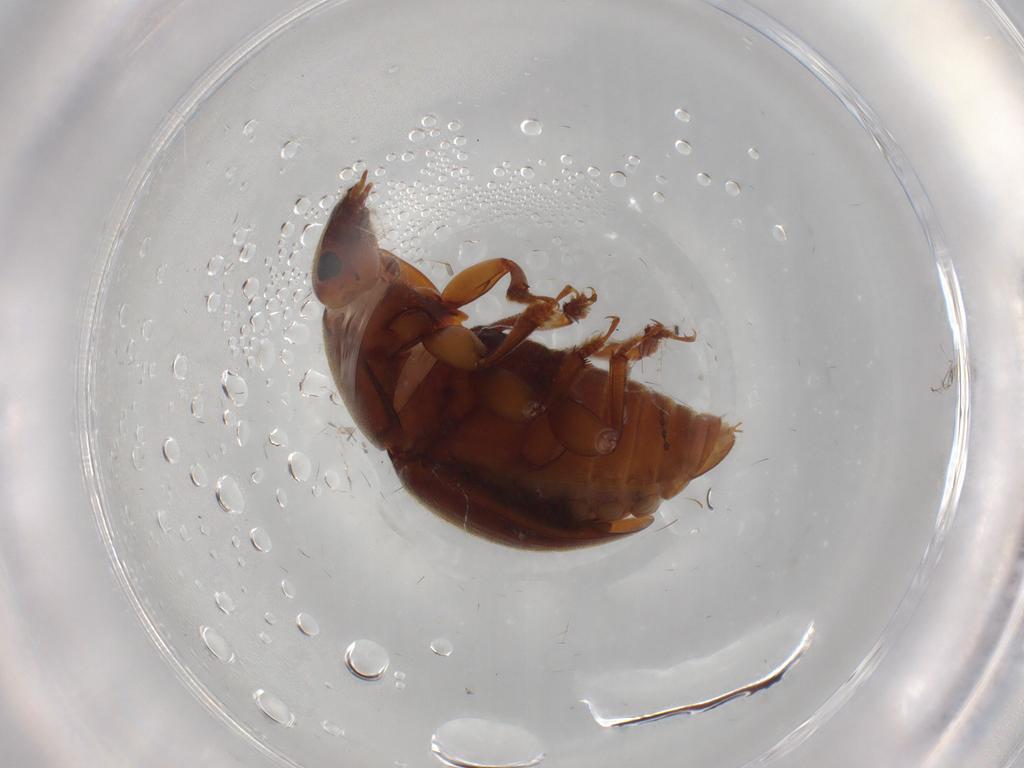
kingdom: Animalia
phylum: Arthropoda
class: Insecta
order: Coleoptera
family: Nitidulidae
